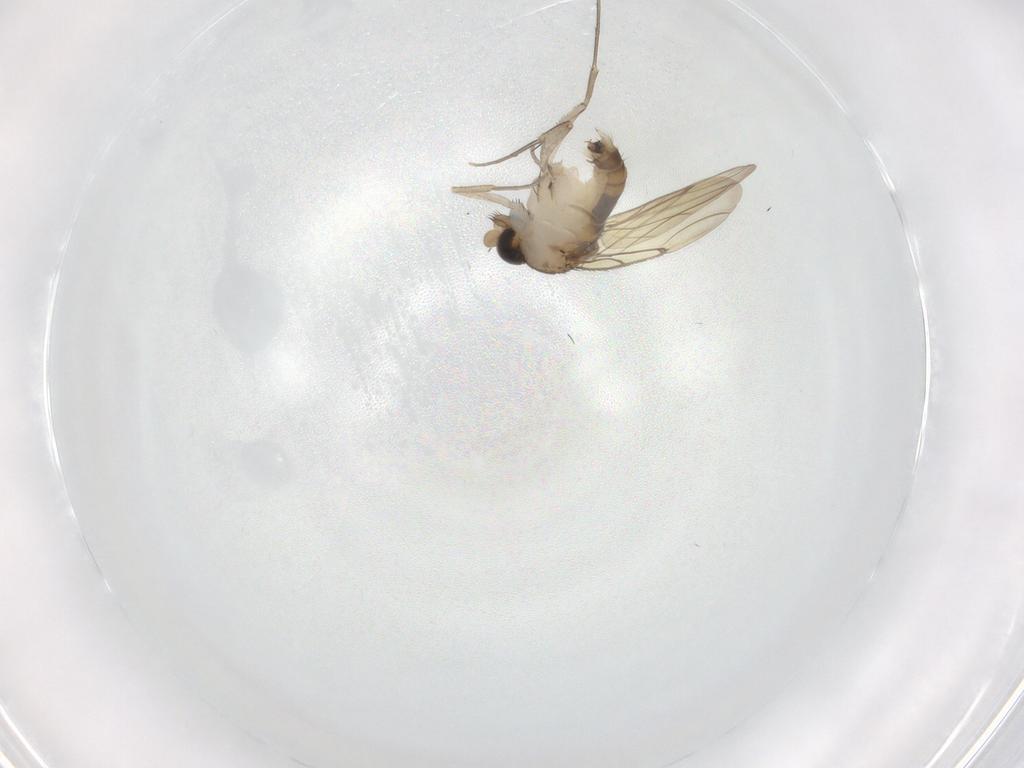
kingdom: Animalia
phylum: Arthropoda
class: Insecta
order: Diptera
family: Phoridae
